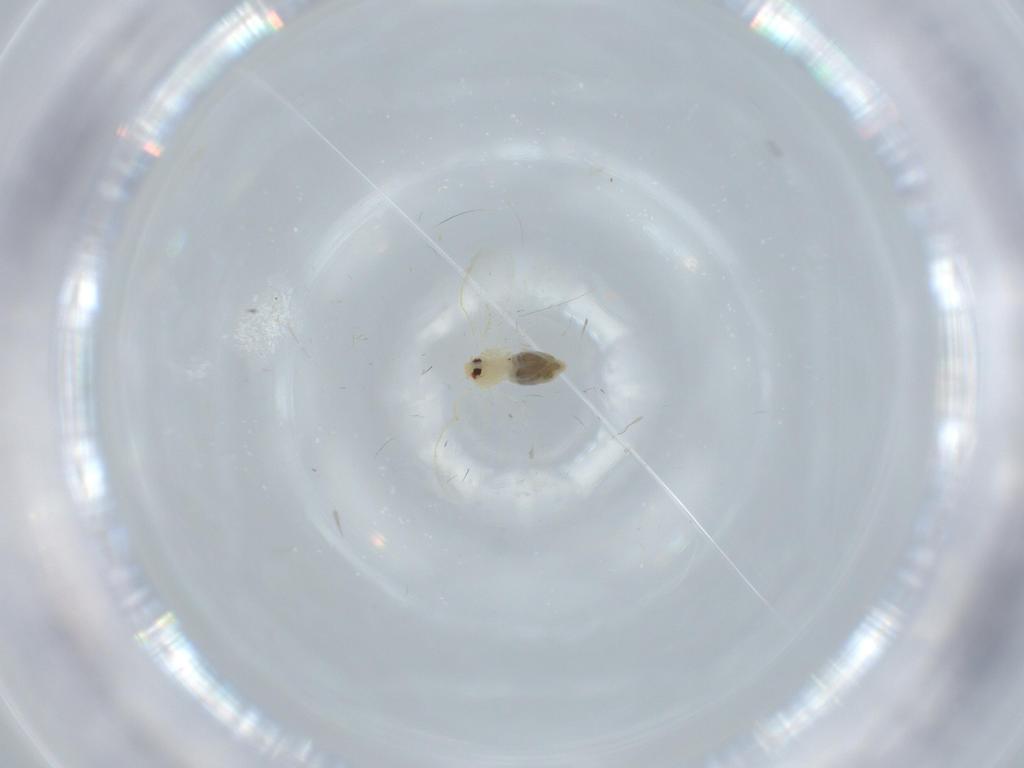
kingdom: Animalia
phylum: Arthropoda
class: Insecta
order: Hemiptera
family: Aleyrodidae
